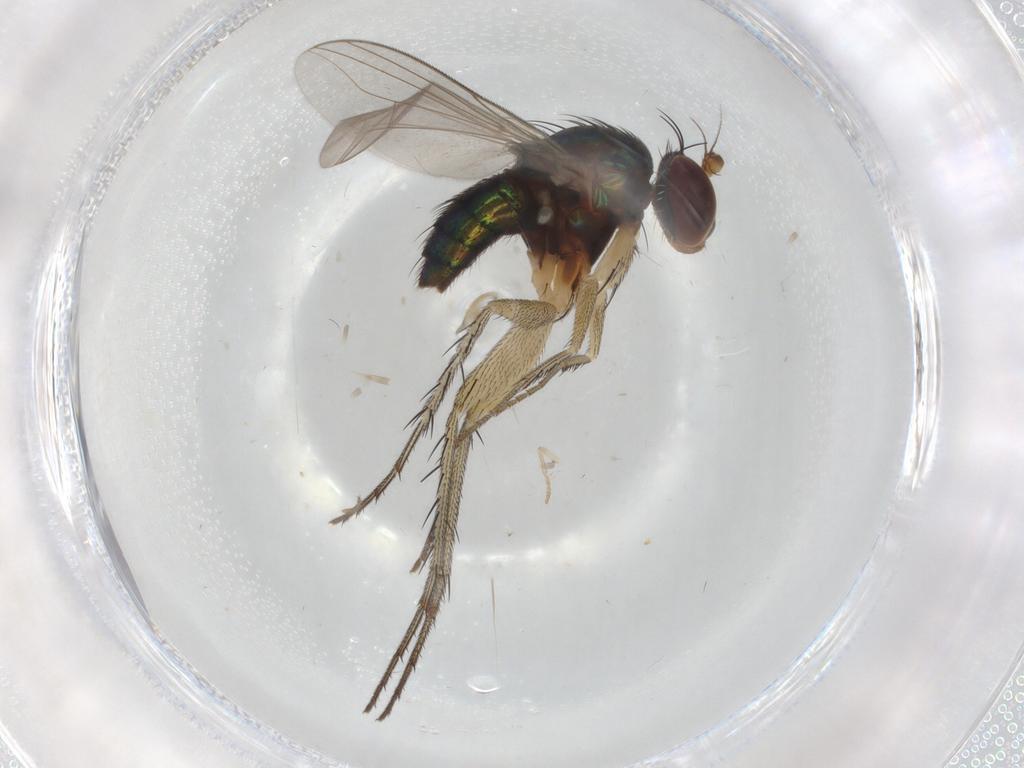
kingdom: Animalia
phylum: Arthropoda
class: Insecta
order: Diptera
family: Dolichopodidae
